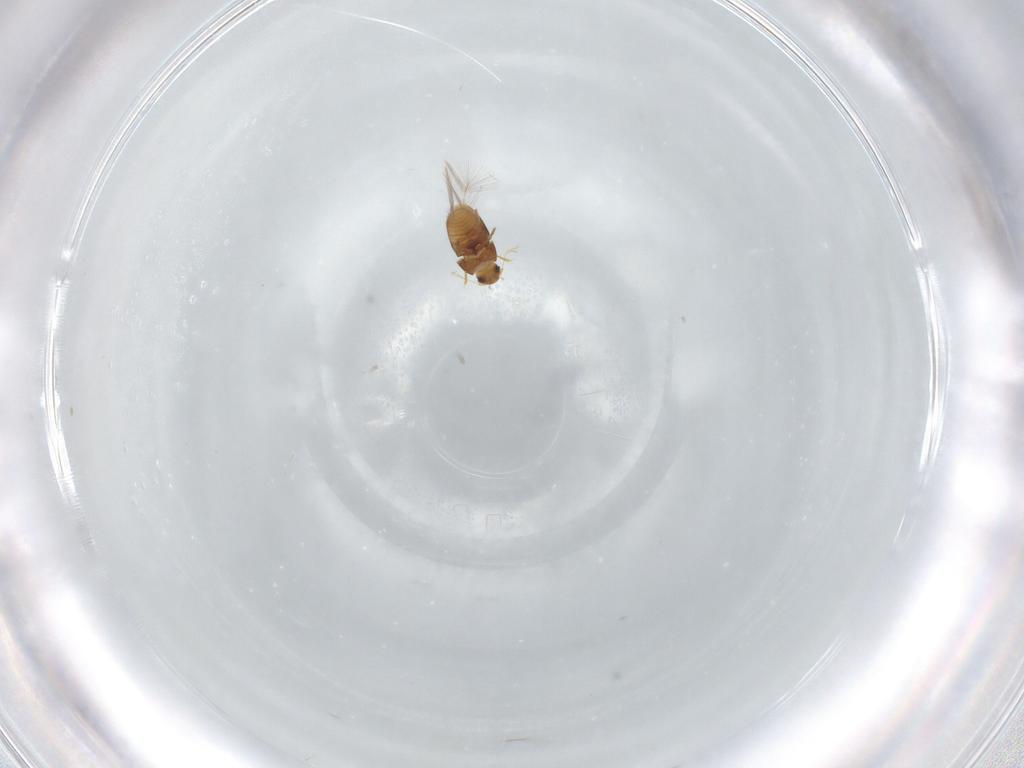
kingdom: Animalia
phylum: Arthropoda
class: Insecta
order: Coleoptera
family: Ptiliidae
